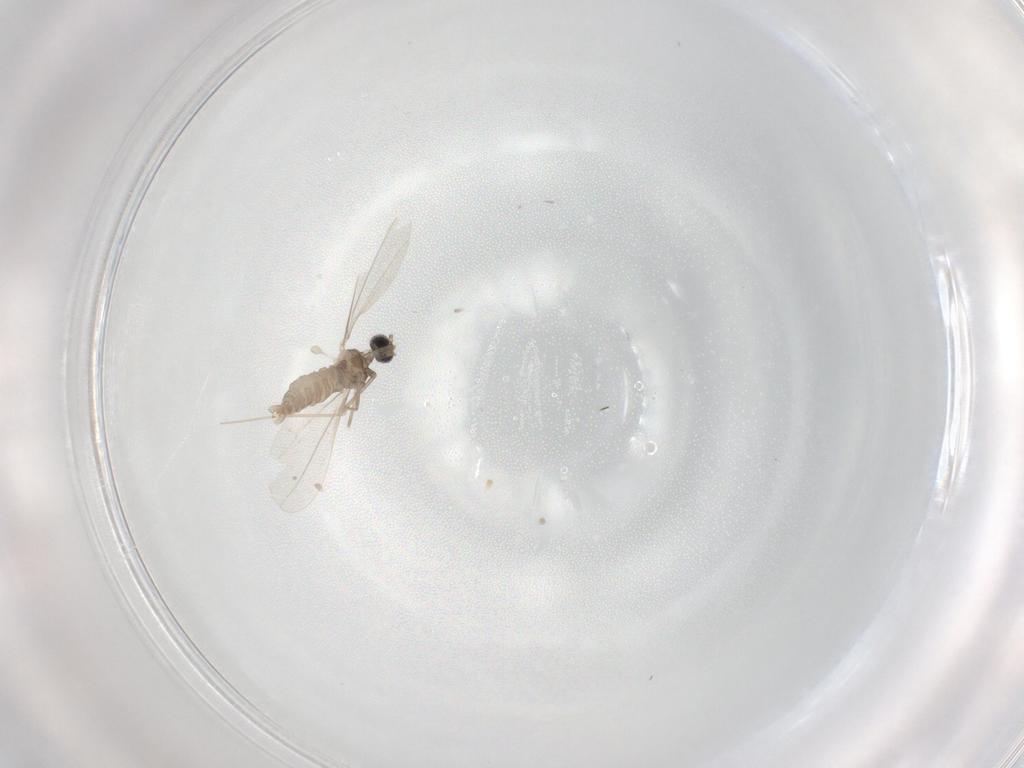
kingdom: Animalia
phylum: Arthropoda
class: Insecta
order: Diptera
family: Cecidomyiidae
